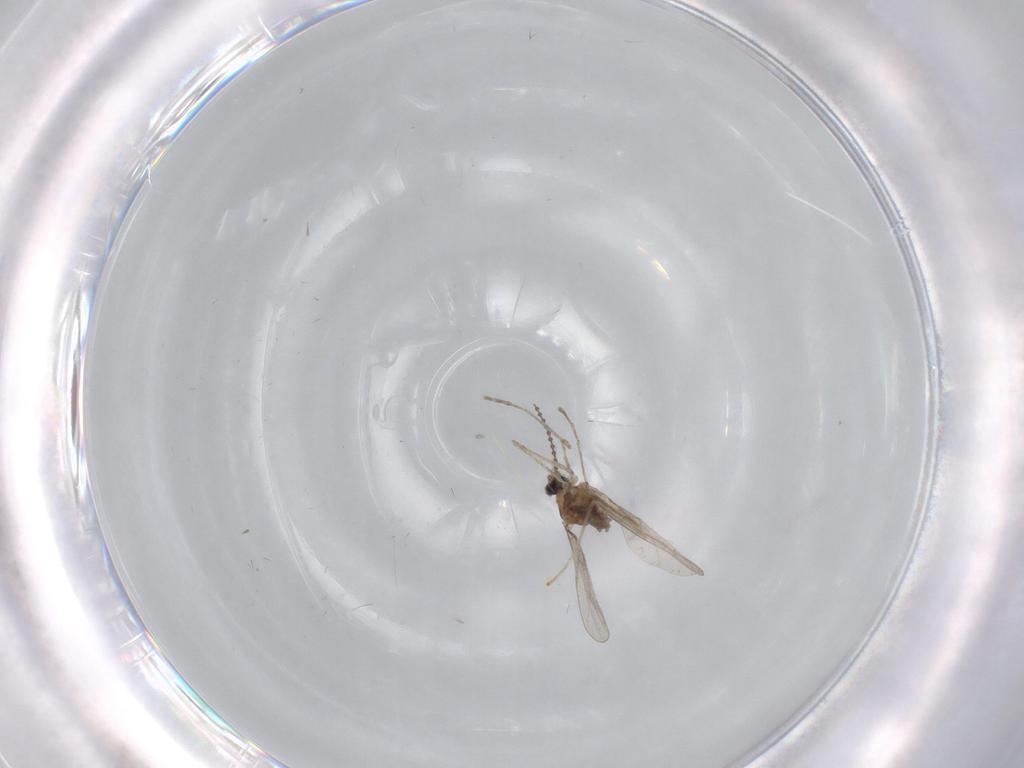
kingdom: Animalia
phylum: Arthropoda
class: Insecta
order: Diptera
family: Cecidomyiidae
